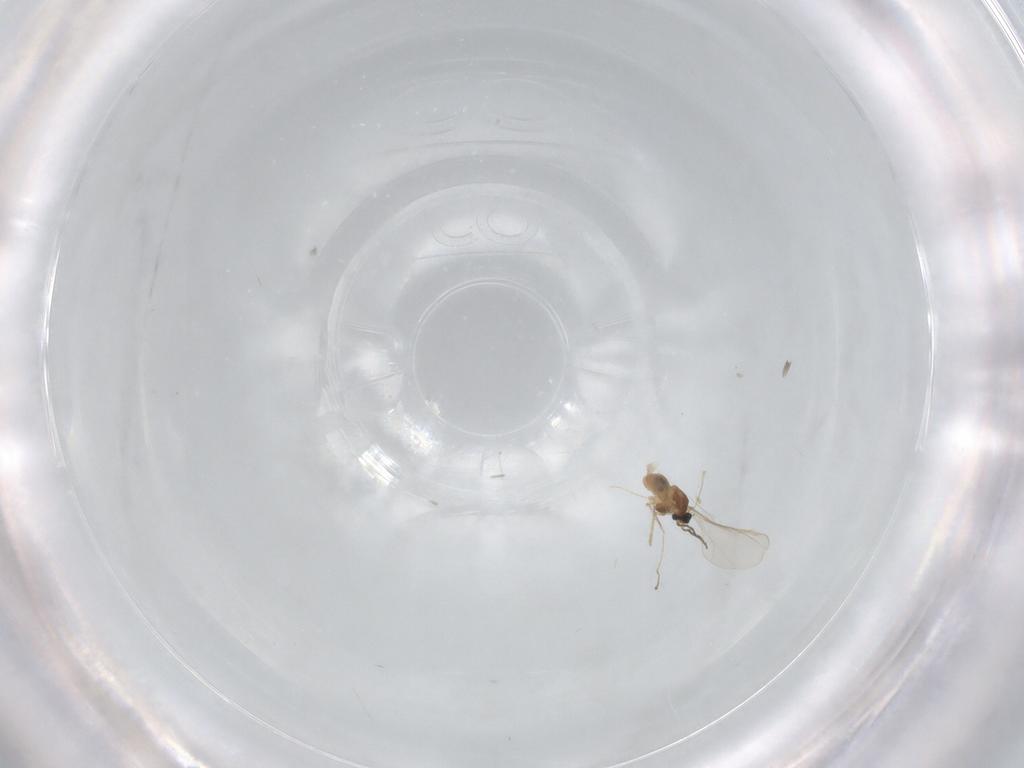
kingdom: Animalia
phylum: Arthropoda
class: Insecta
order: Diptera
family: Cecidomyiidae
